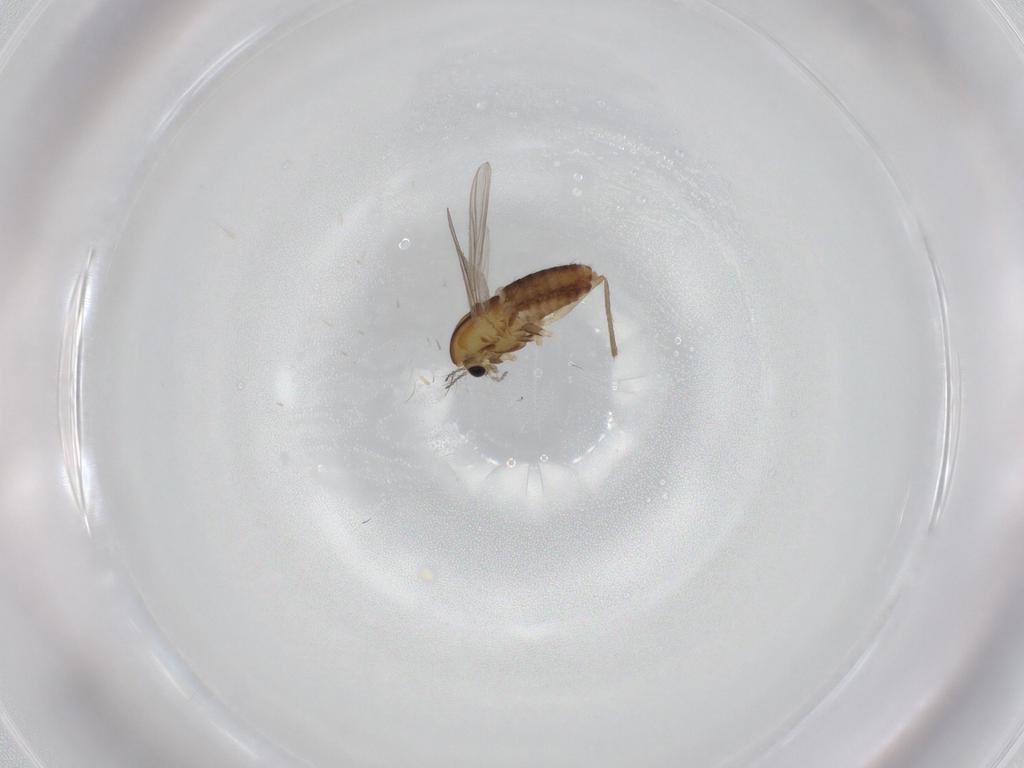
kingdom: Animalia
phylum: Arthropoda
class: Insecta
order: Diptera
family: Chironomidae
